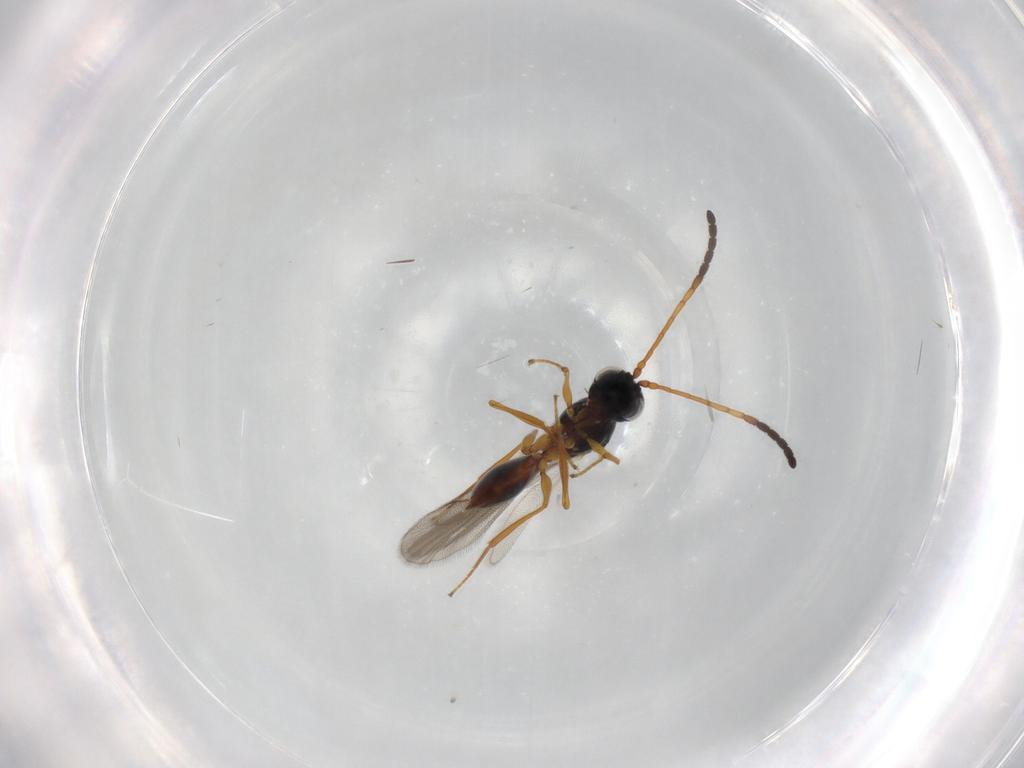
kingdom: Animalia
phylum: Arthropoda
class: Insecta
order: Hymenoptera
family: Figitidae
